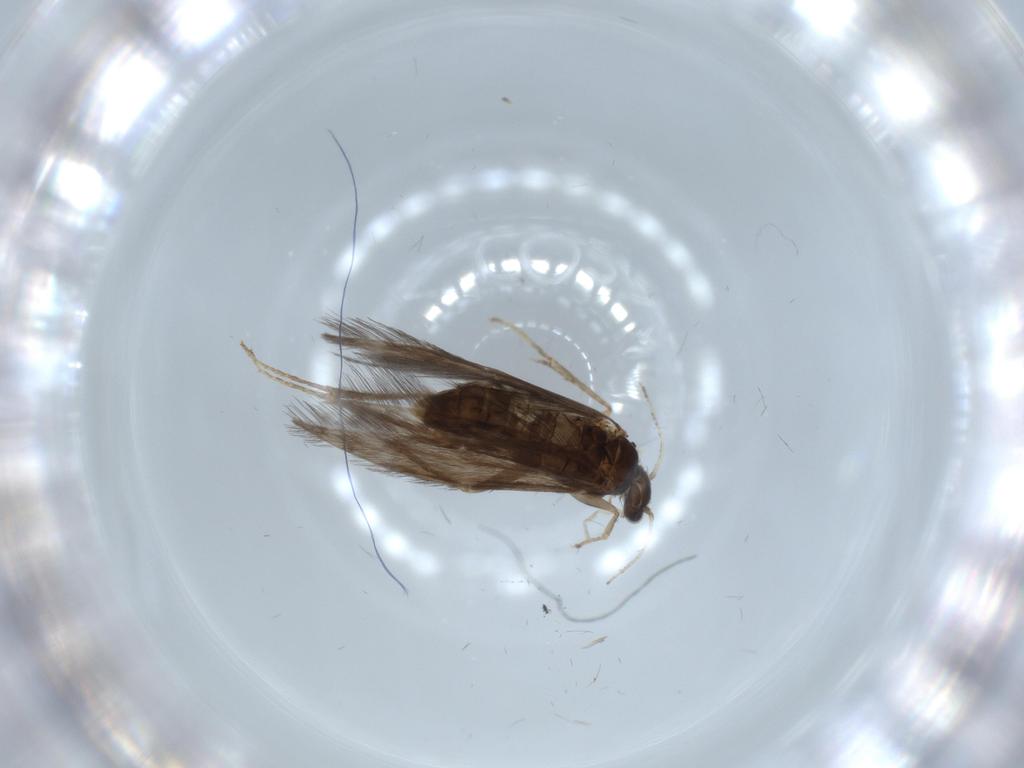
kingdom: Animalia
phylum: Arthropoda
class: Insecta
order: Trichoptera
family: Hydroptilidae
